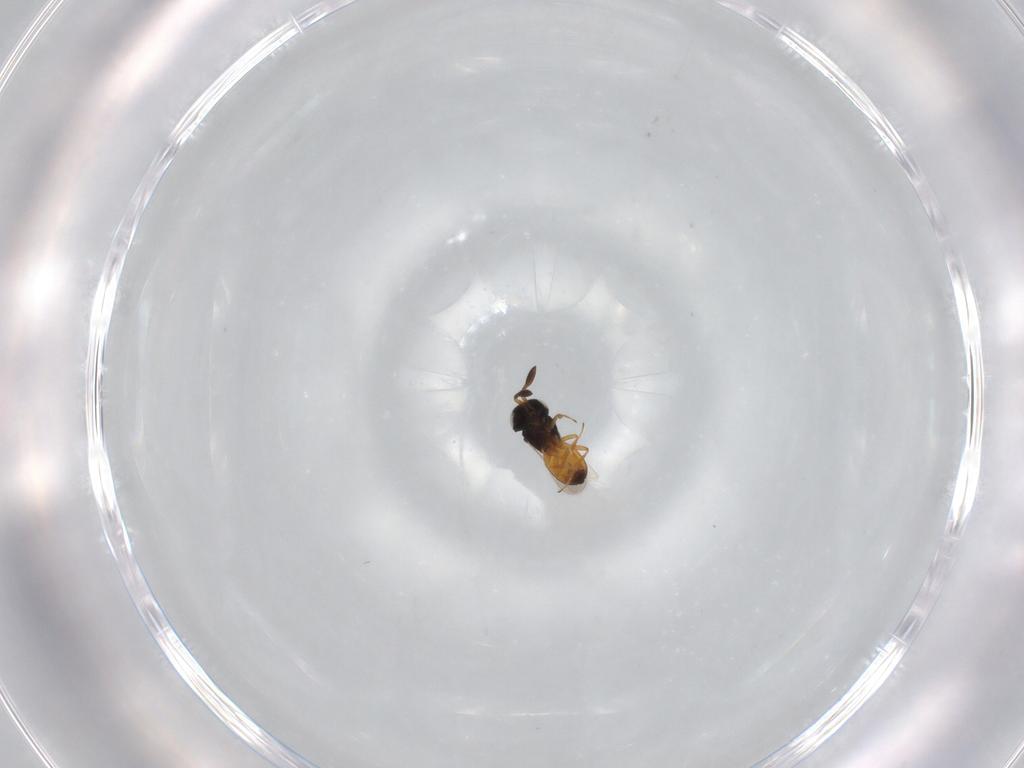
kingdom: Animalia
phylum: Arthropoda
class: Insecta
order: Hymenoptera
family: Scelionidae
